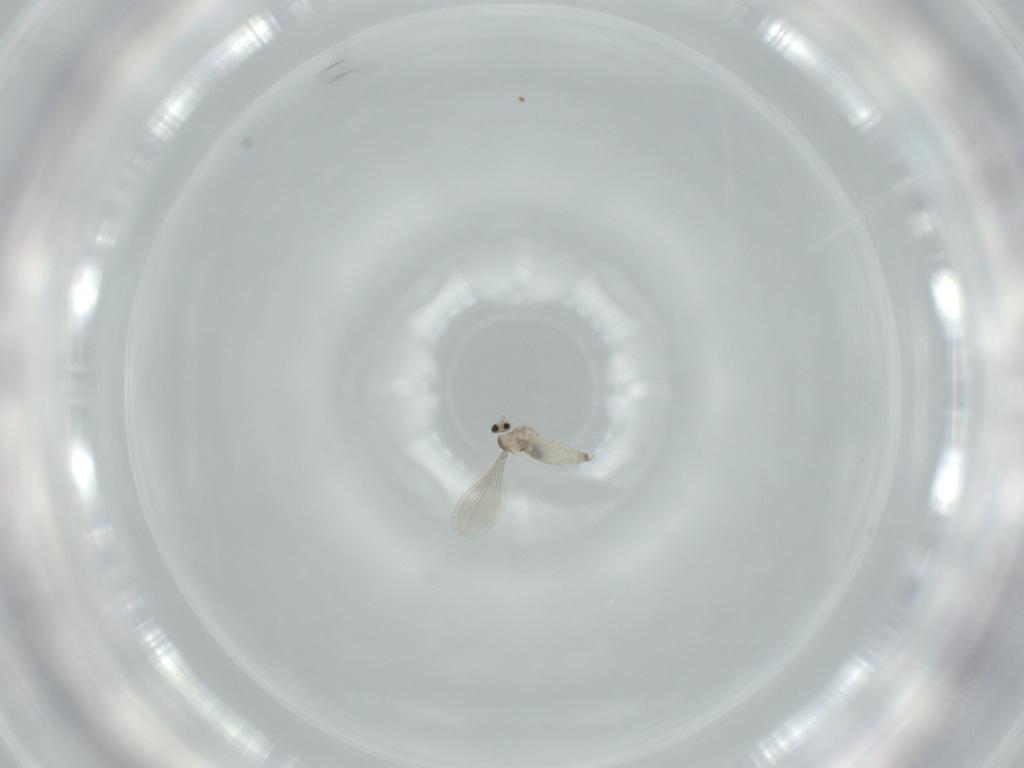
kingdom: Animalia
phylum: Arthropoda
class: Insecta
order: Diptera
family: Cecidomyiidae
